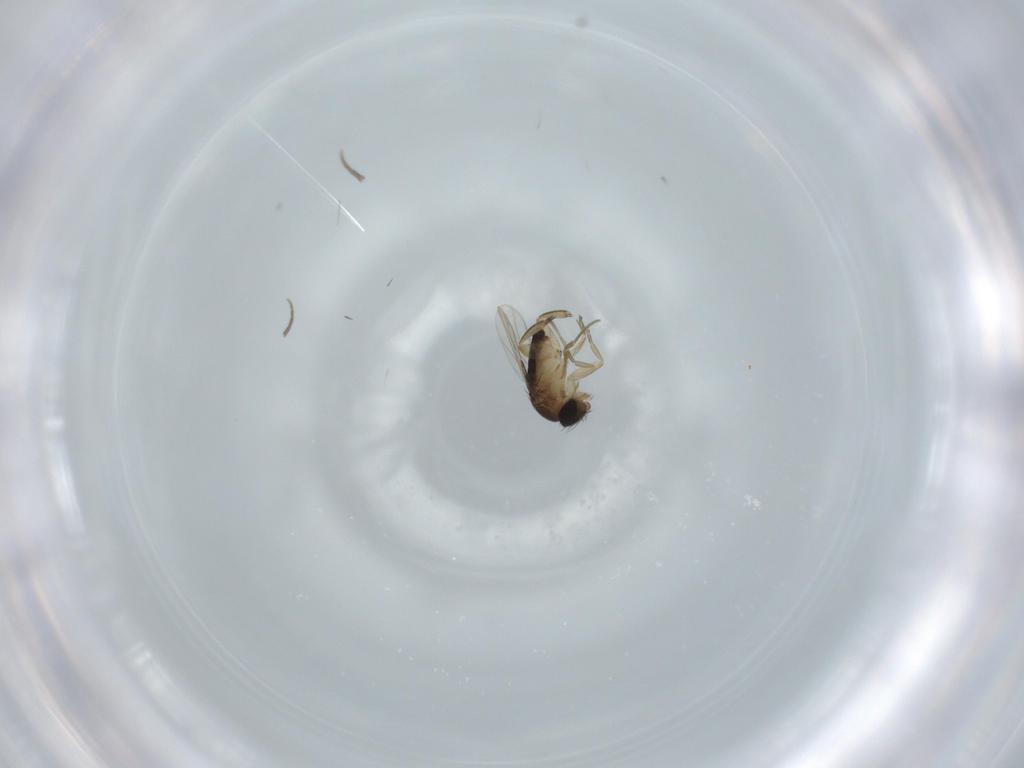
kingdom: Animalia
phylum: Arthropoda
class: Insecta
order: Diptera
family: Phoridae
